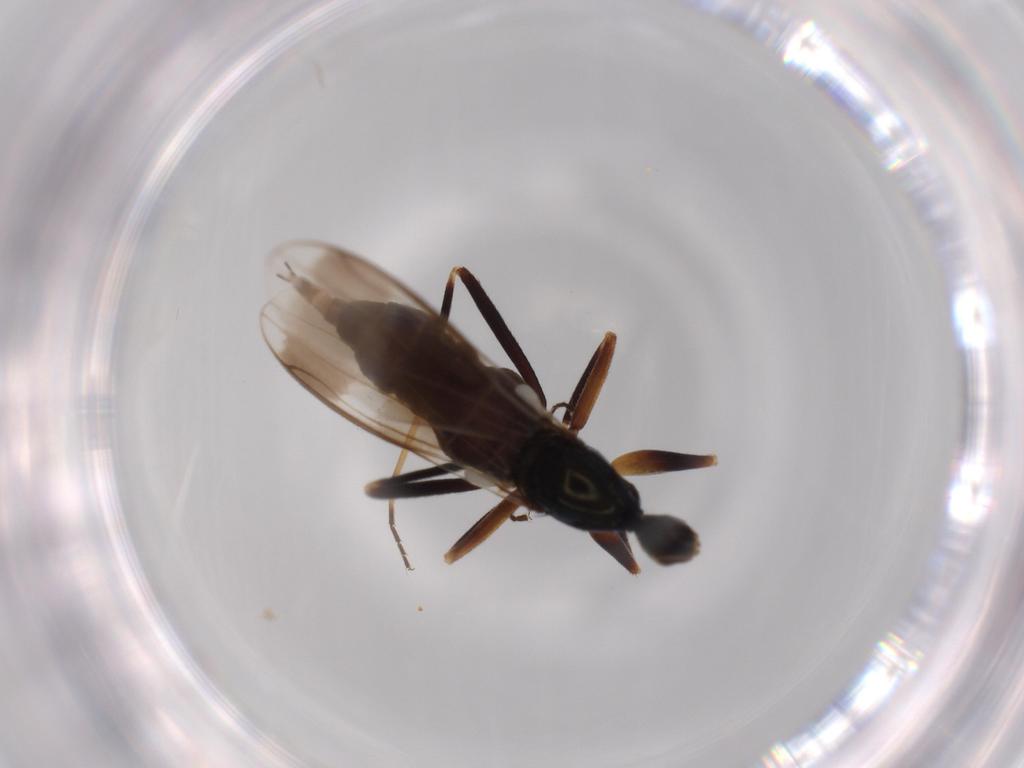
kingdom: Animalia
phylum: Arthropoda
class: Insecta
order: Diptera
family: Hybotidae
